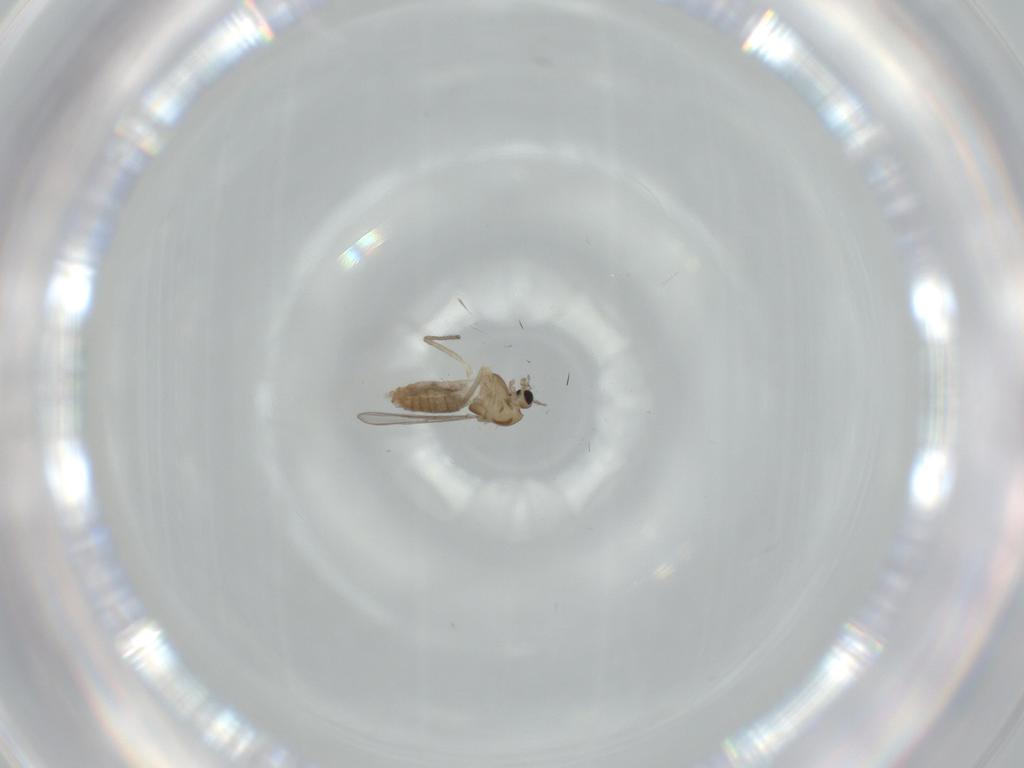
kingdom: Animalia
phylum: Arthropoda
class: Insecta
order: Diptera
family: Chironomidae
